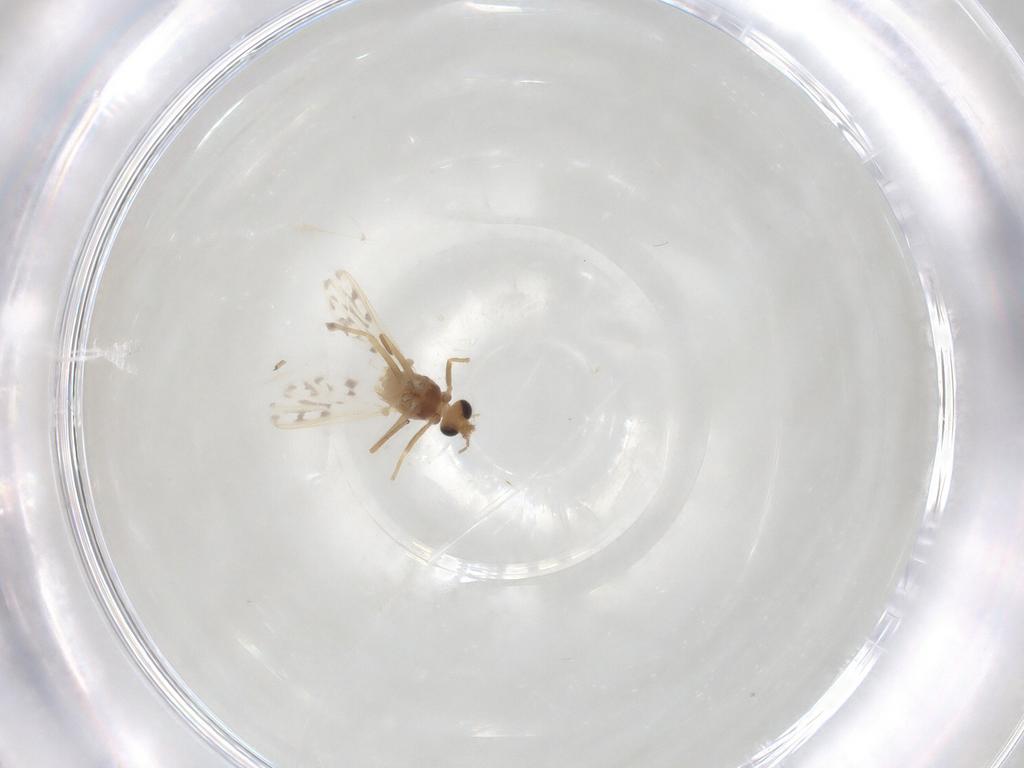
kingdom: Animalia
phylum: Arthropoda
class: Insecta
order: Diptera
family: Chironomidae
